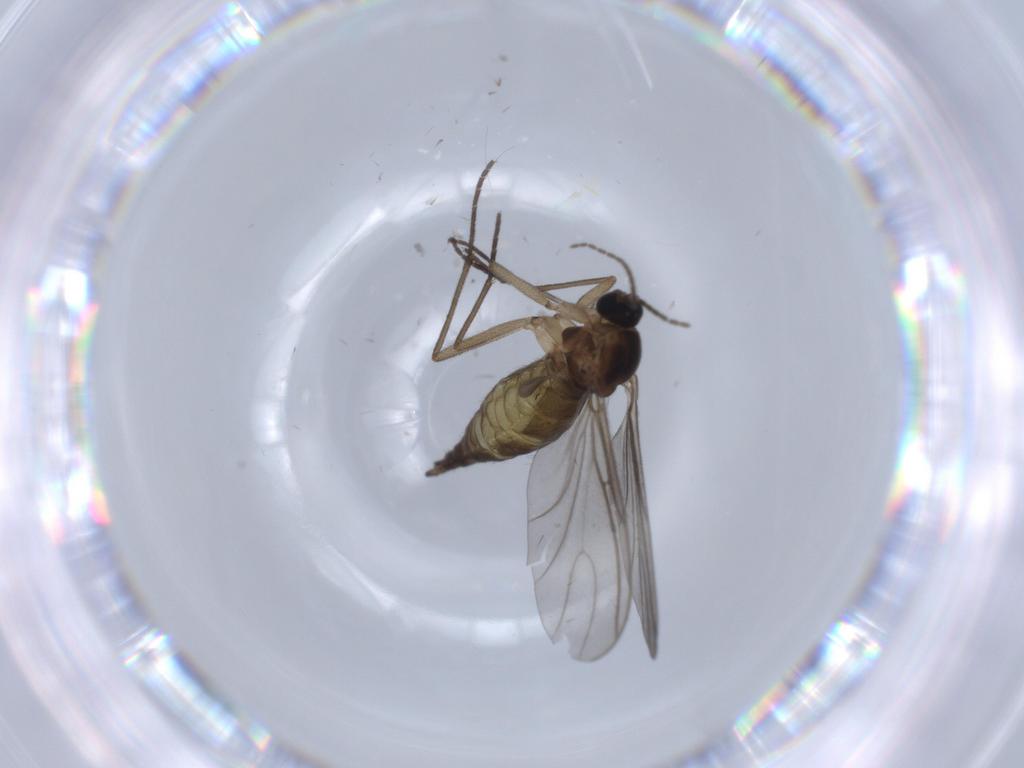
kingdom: Animalia
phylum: Arthropoda
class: Insecta
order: Diptera
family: Sciaridae
